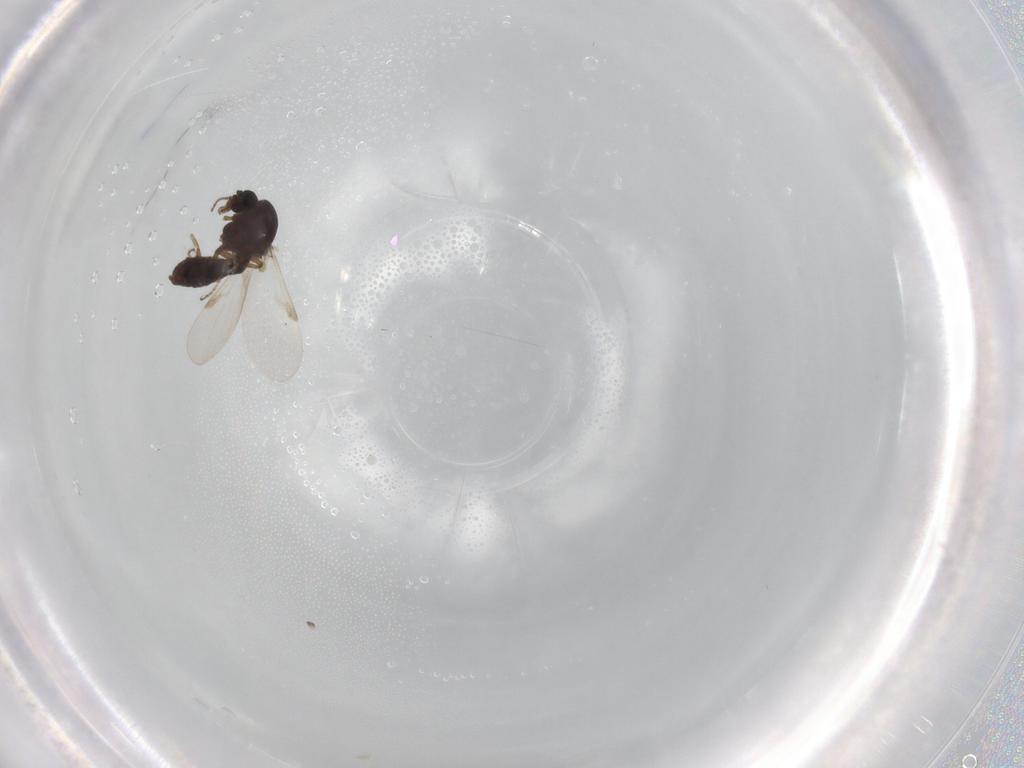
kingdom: Animalia
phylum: Arthropoda
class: Insecta
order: Diptera
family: Ceratopogonidae
